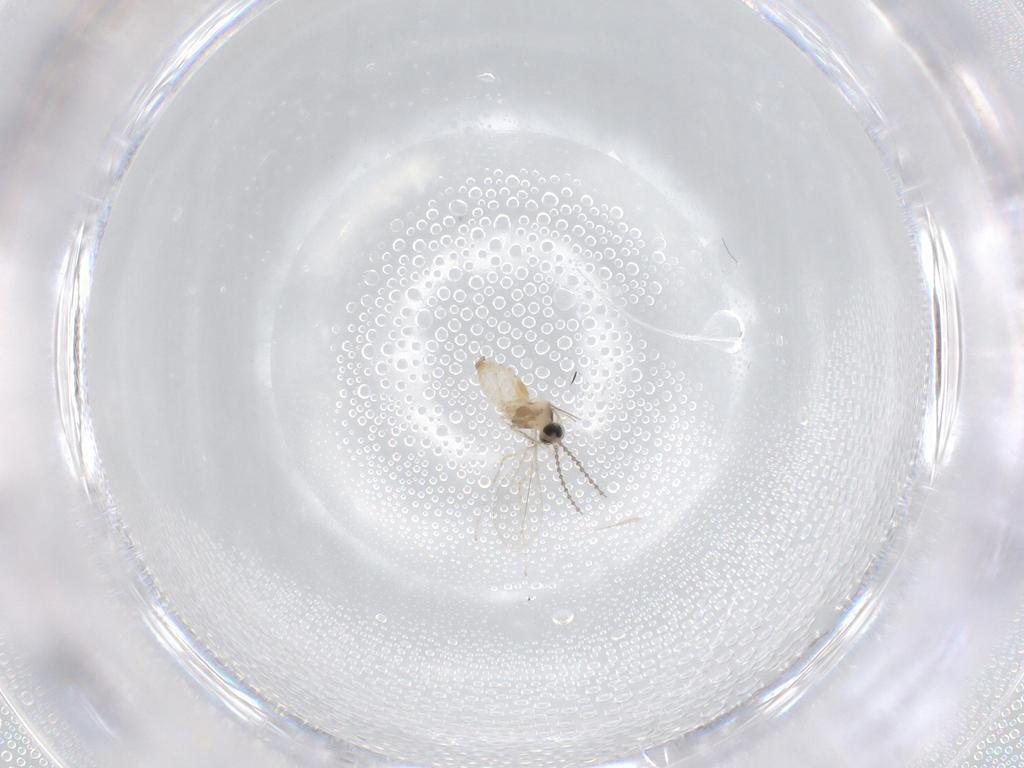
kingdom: Animalia
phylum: Arthropoda
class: Insecta
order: Diptera
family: Cecidomyiidae
